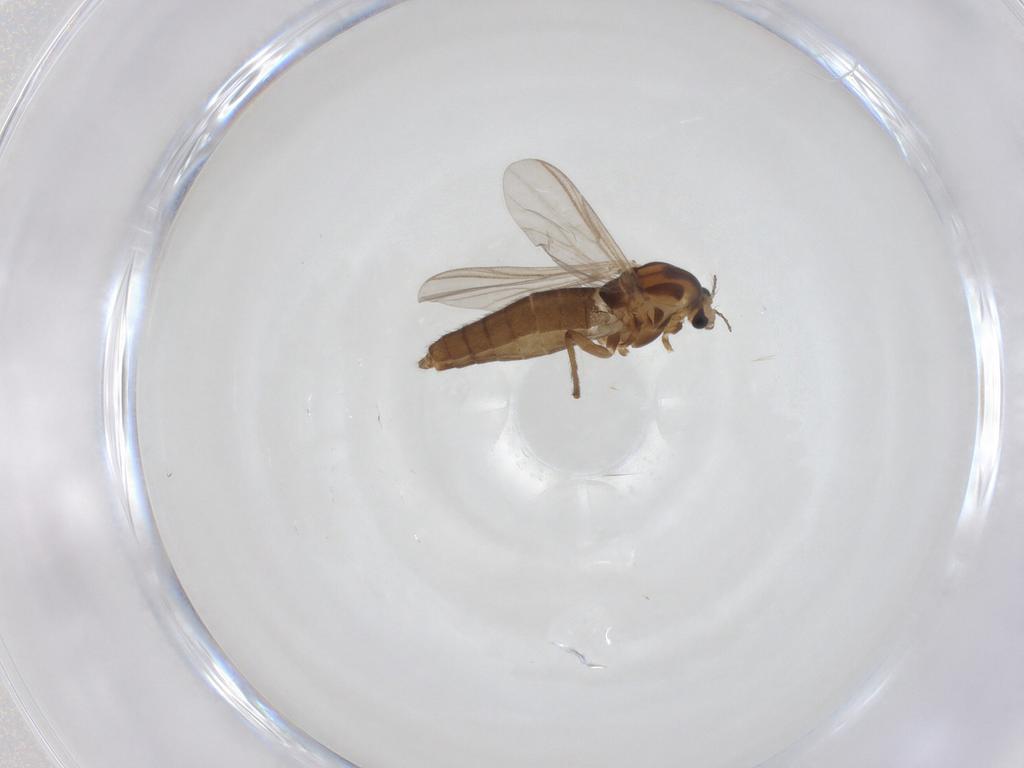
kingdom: Animalia
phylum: Arthropoda
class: Insecta
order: Diptera
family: Chironomidae
